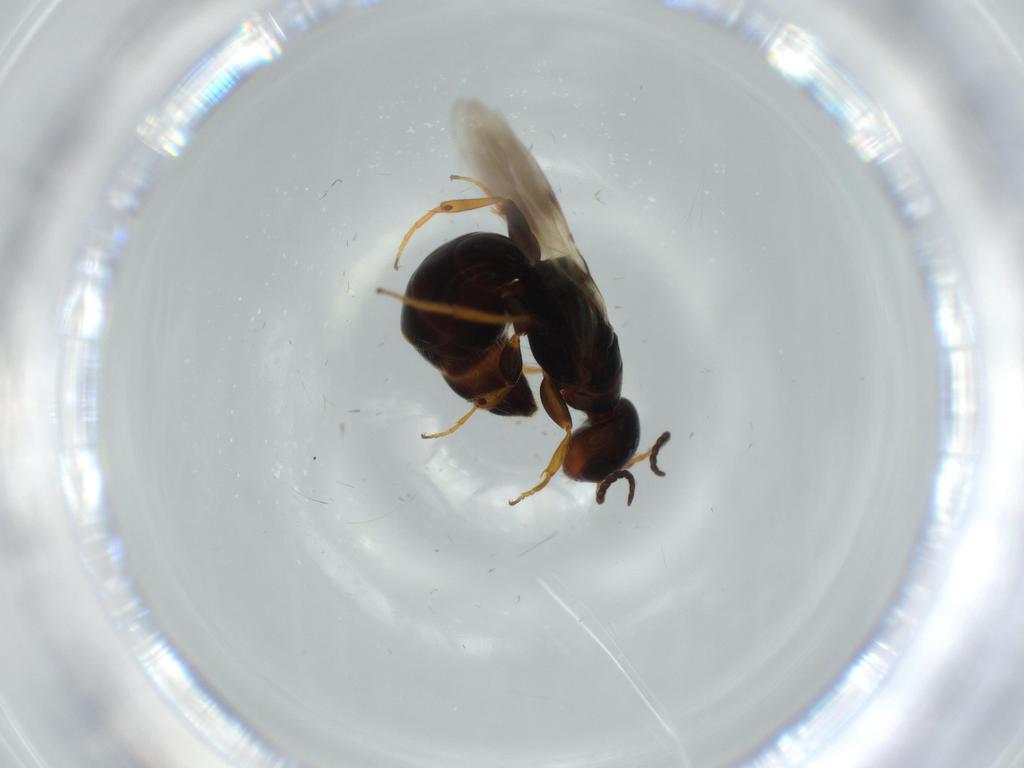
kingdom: Animalia
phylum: Arthropoda
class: Insecta
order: Hymenoptera
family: Bethylidae
